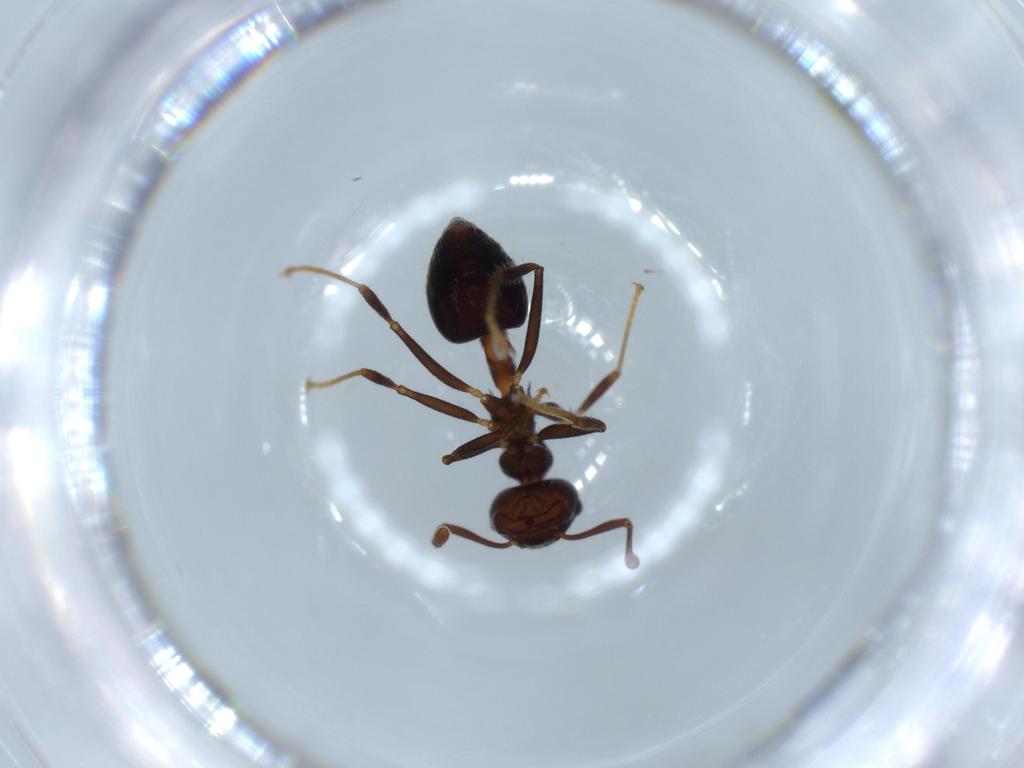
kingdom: Animalia
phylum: Arthropoda
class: Insecta
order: Hymenoptera
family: Formicidae
